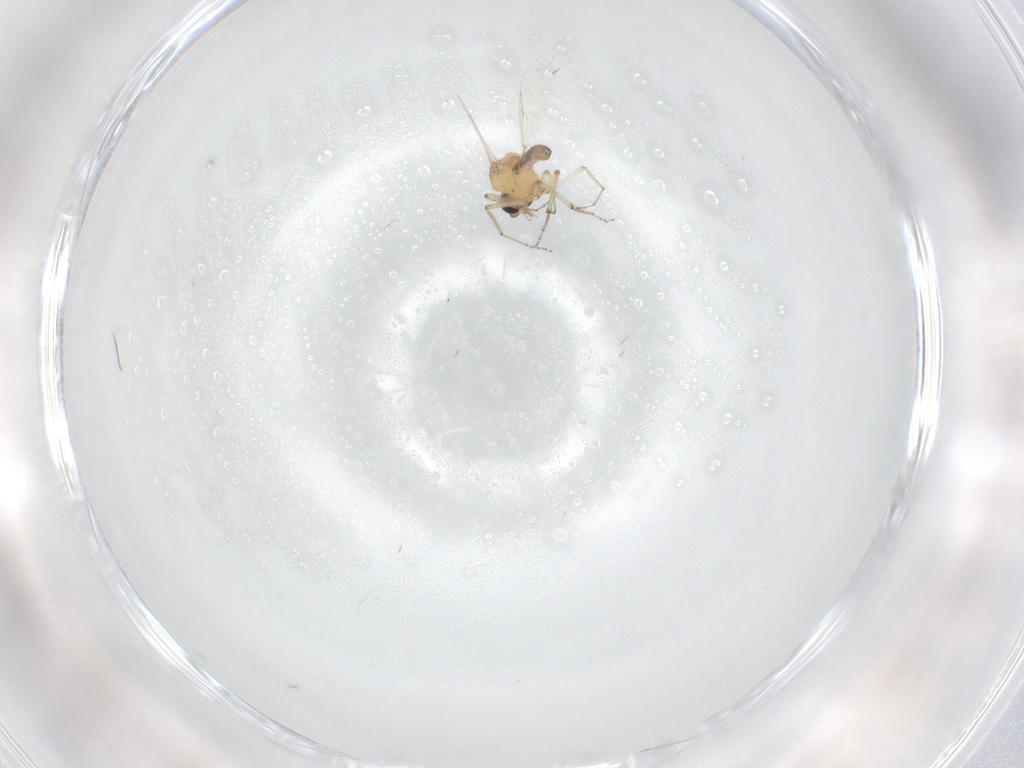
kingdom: Animalia
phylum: Arthropoda
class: Insecta
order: Diptera
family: Ceratopogonidae
